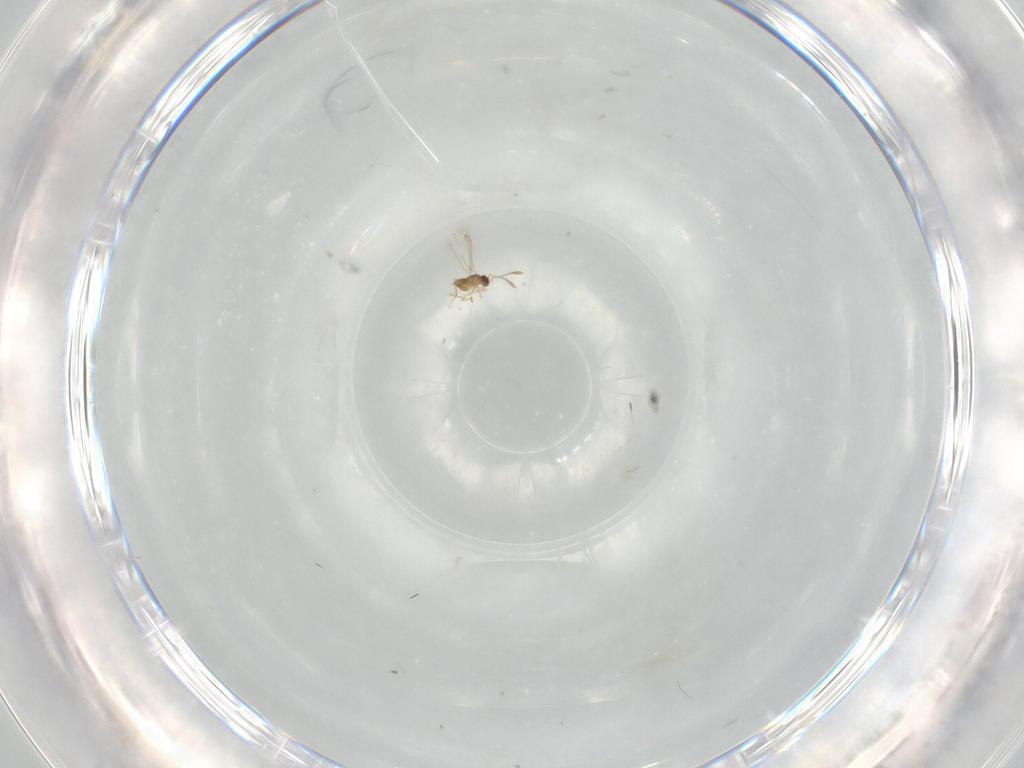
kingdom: Animalia
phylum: Arthropoda
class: Insecta
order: Hymenoptera
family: Mymaridae
